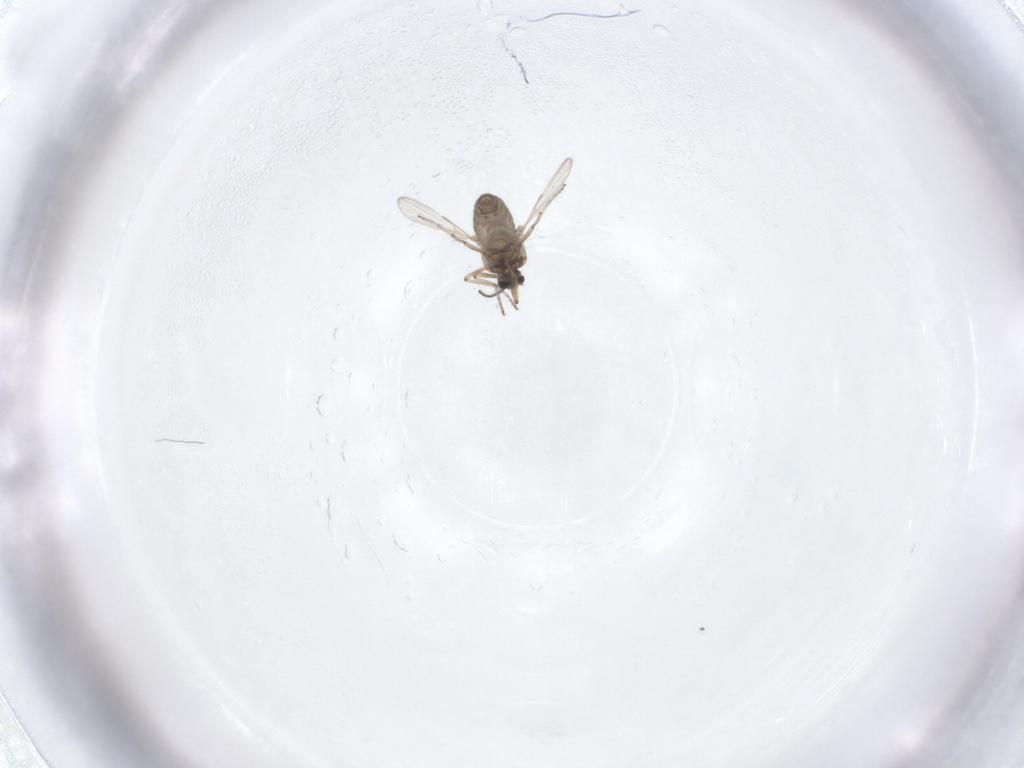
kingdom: Animalia
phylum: Arthropoda
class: Insecta
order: Diptera
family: Ceratopogonidae
